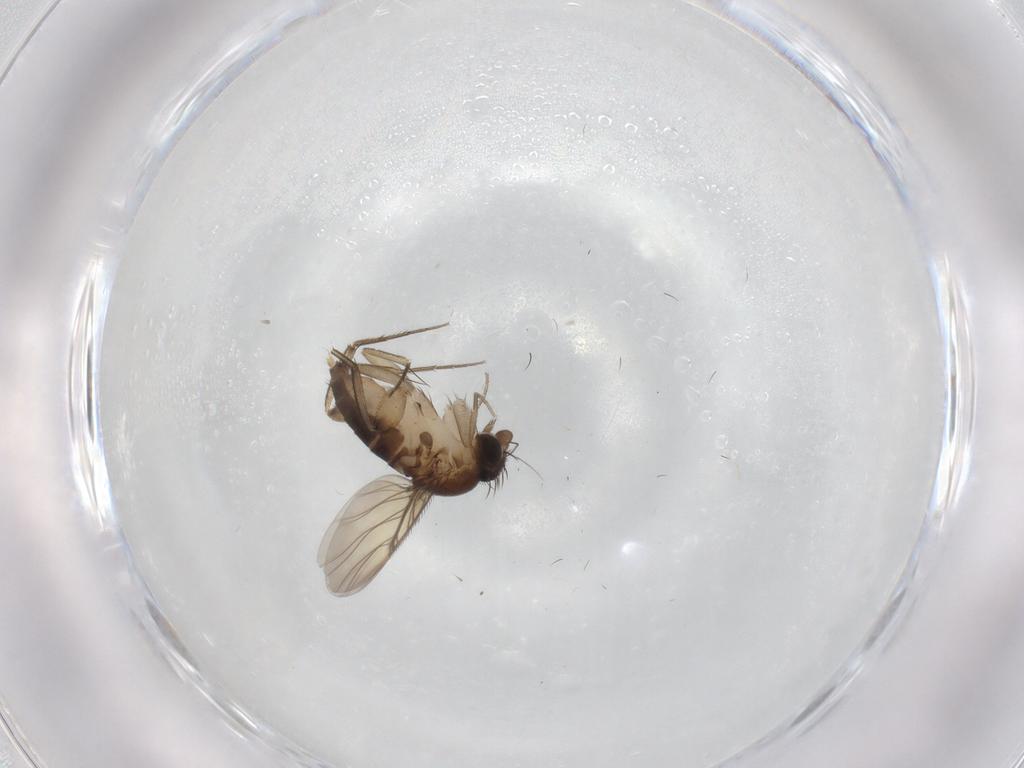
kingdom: Animalia
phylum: Arthropoda
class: Insecta
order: Diptera
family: Phoridae
